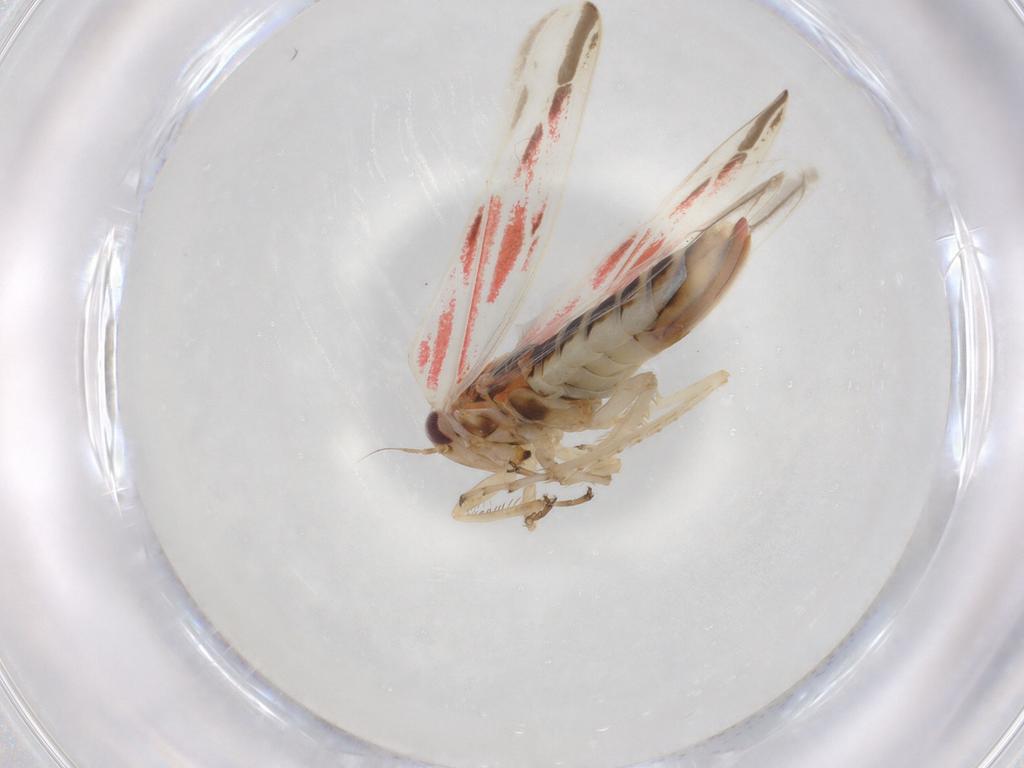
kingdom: Animalia
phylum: Arthropoda
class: Insecta
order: Hemiptera
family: Cicadellidae
